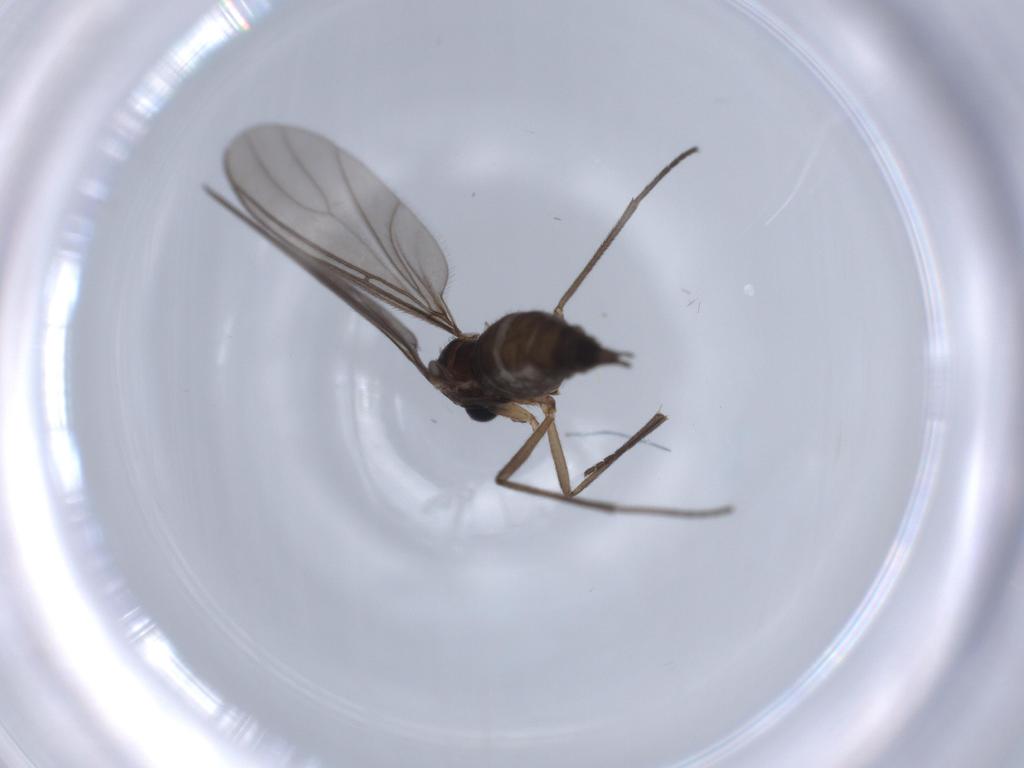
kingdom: Animalia
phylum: Arthropoda
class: Insecta
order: Diptera
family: Sciaridae
